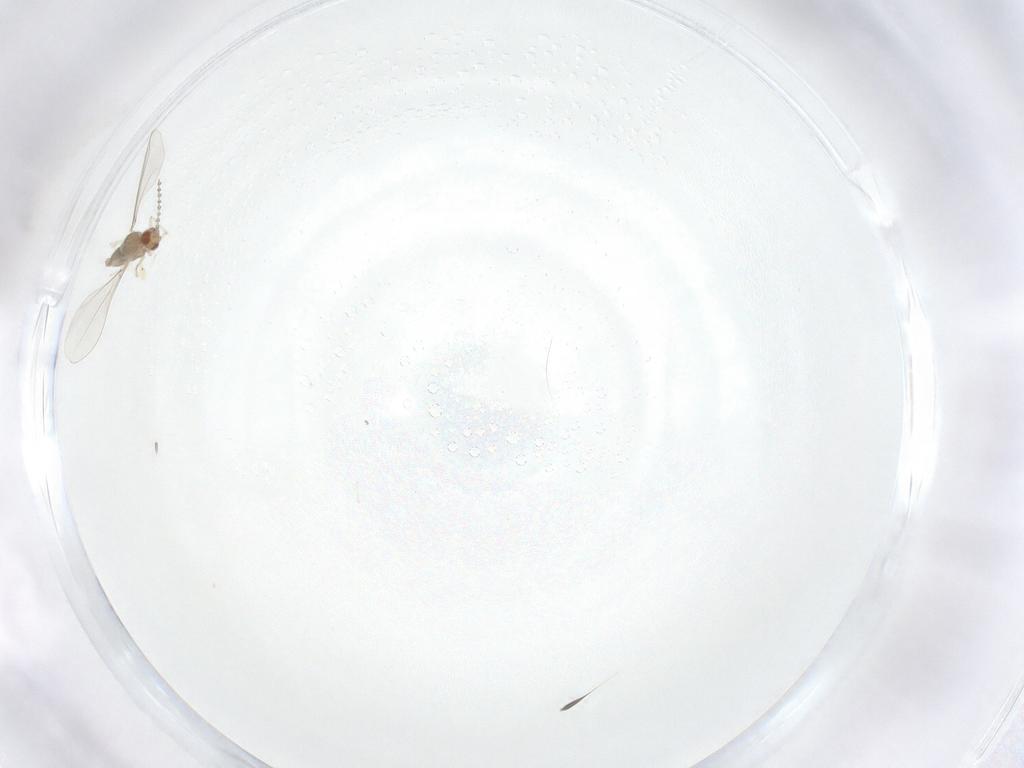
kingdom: Animalia
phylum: Arthropoda
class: Insecta
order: Diptera
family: Cecidomyiidae
